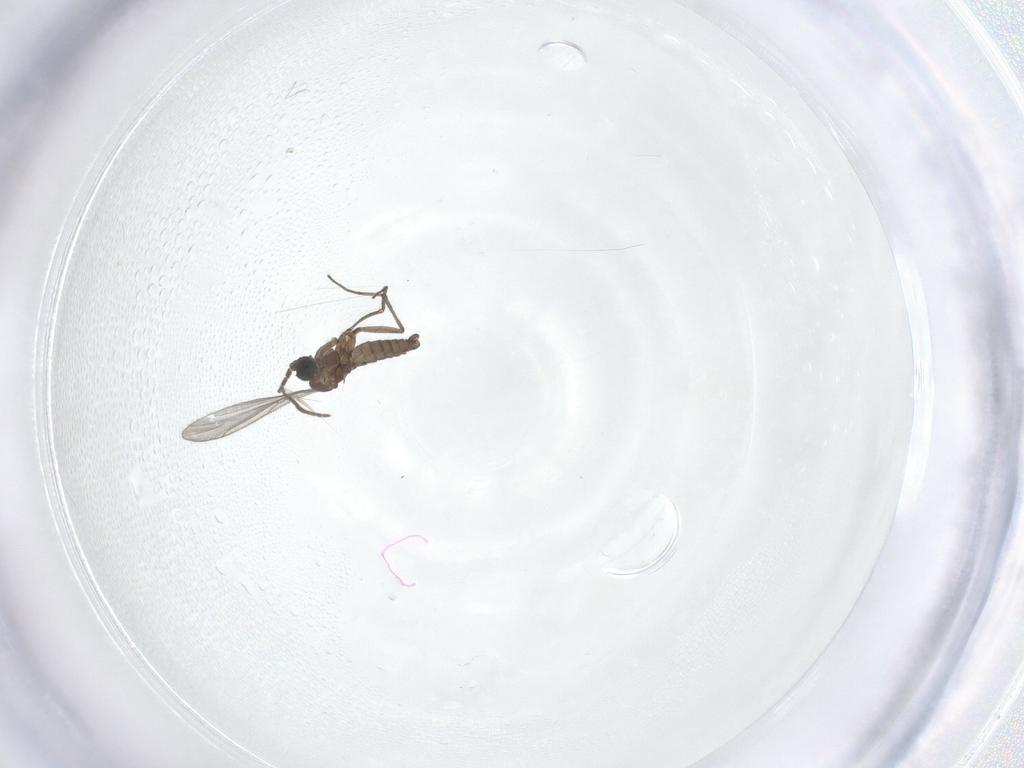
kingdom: Animalia
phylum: Arthropoda
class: Insecta
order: Diptera
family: Sciaridae
